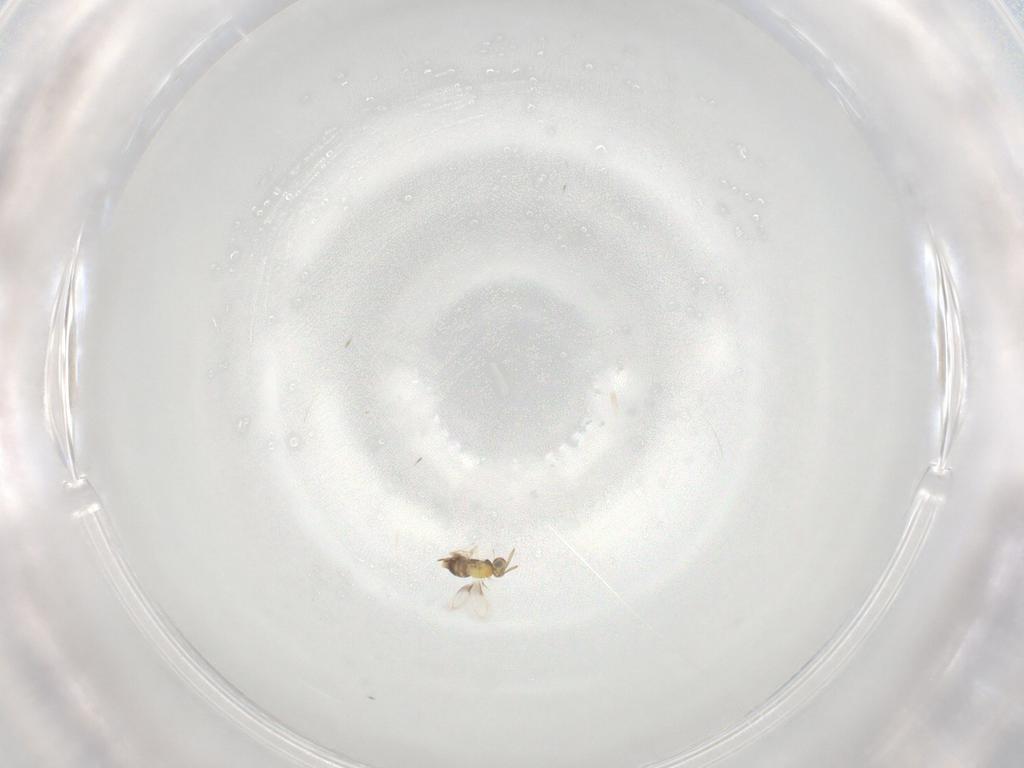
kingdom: Animalia
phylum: Arthropoda
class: Insecta
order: Hymenoptera
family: Aphelinidae
